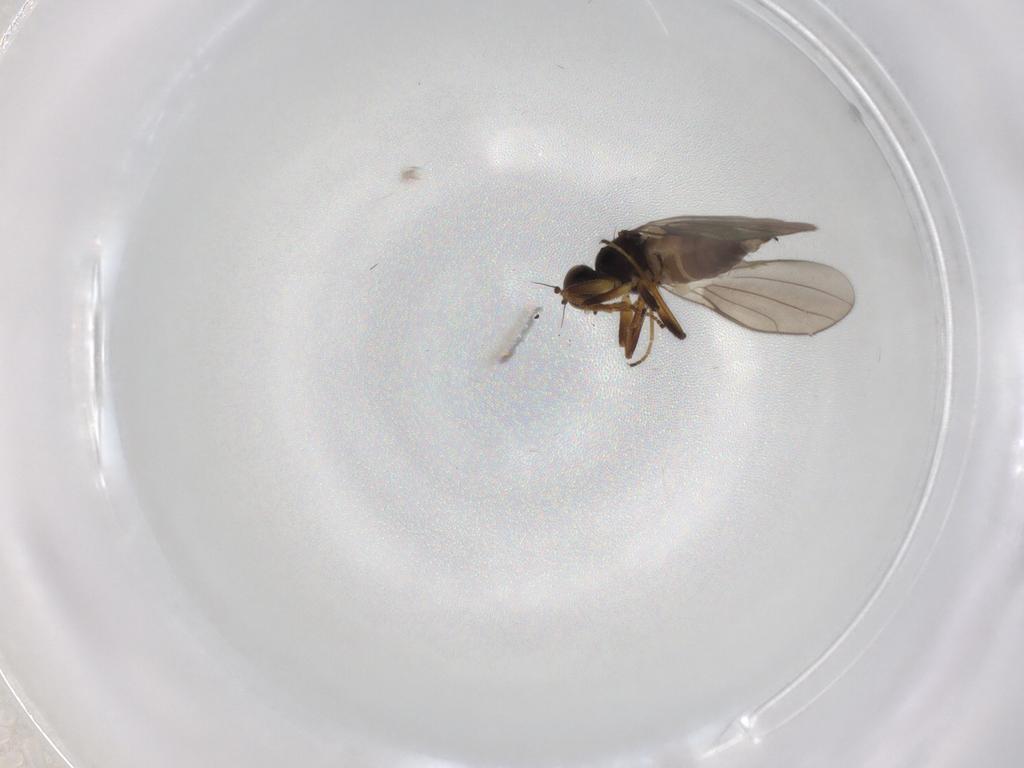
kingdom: Animalia
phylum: Arthropoda
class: Insecta
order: Diptera
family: Hybotidae
